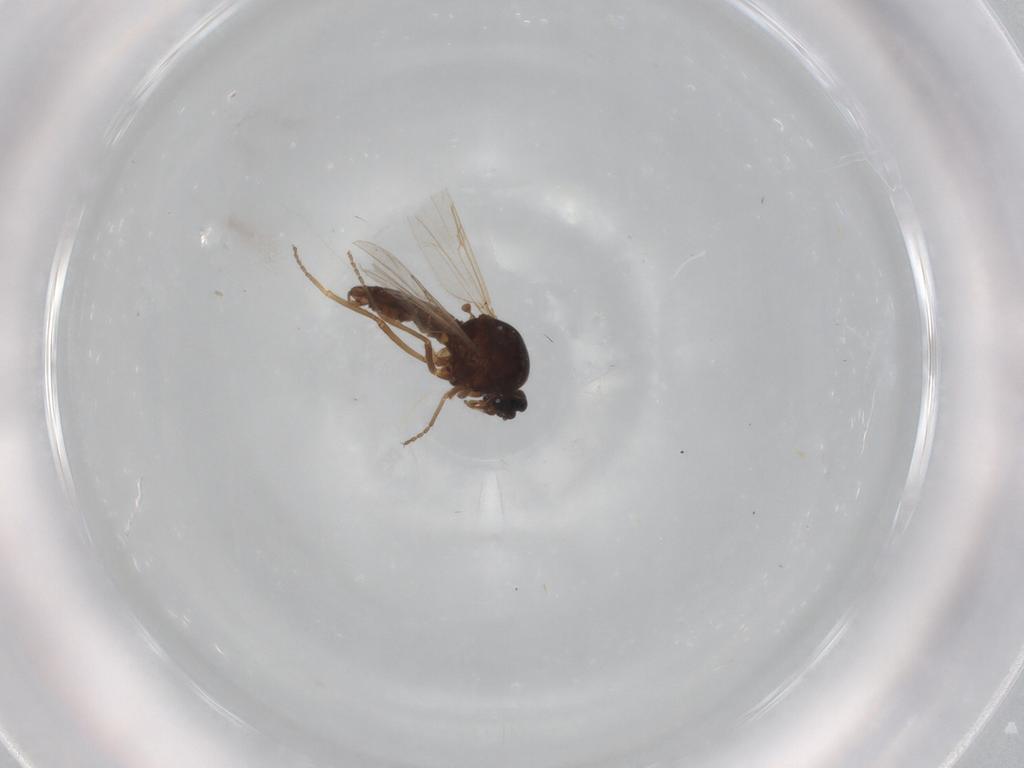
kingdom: Animalia
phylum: Arthropoda
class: Insecta
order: Diptera
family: Ceratopogonidae
